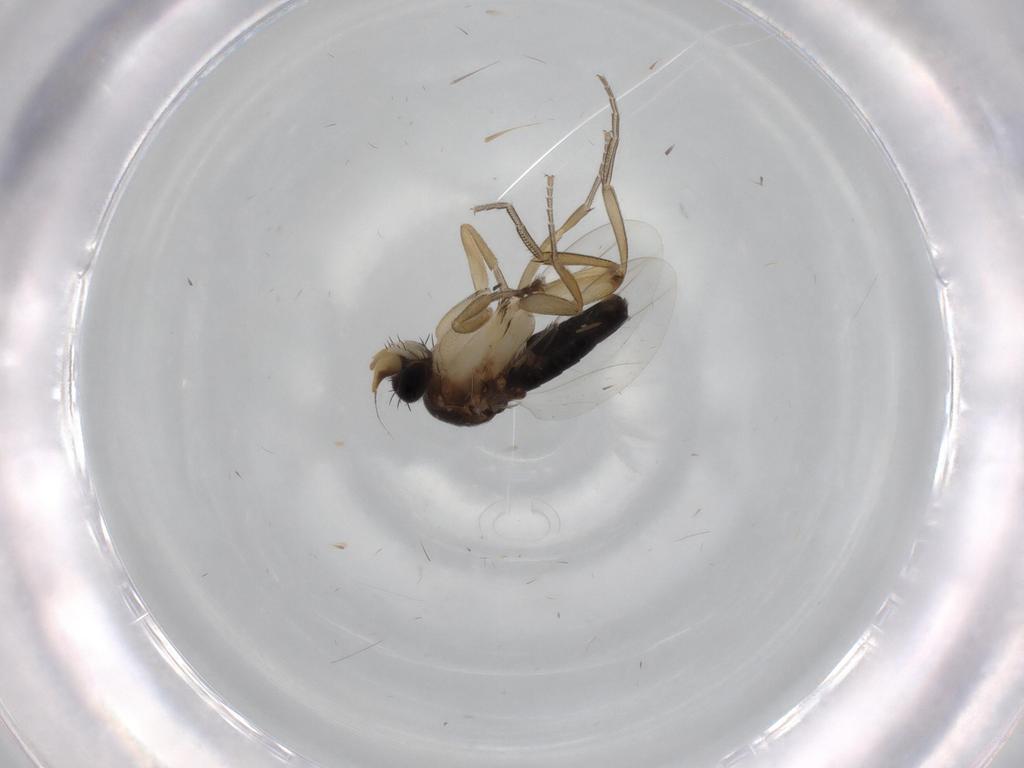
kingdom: Animalia
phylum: Arthropoda
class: Insecta
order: Diptera
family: Phoridae
